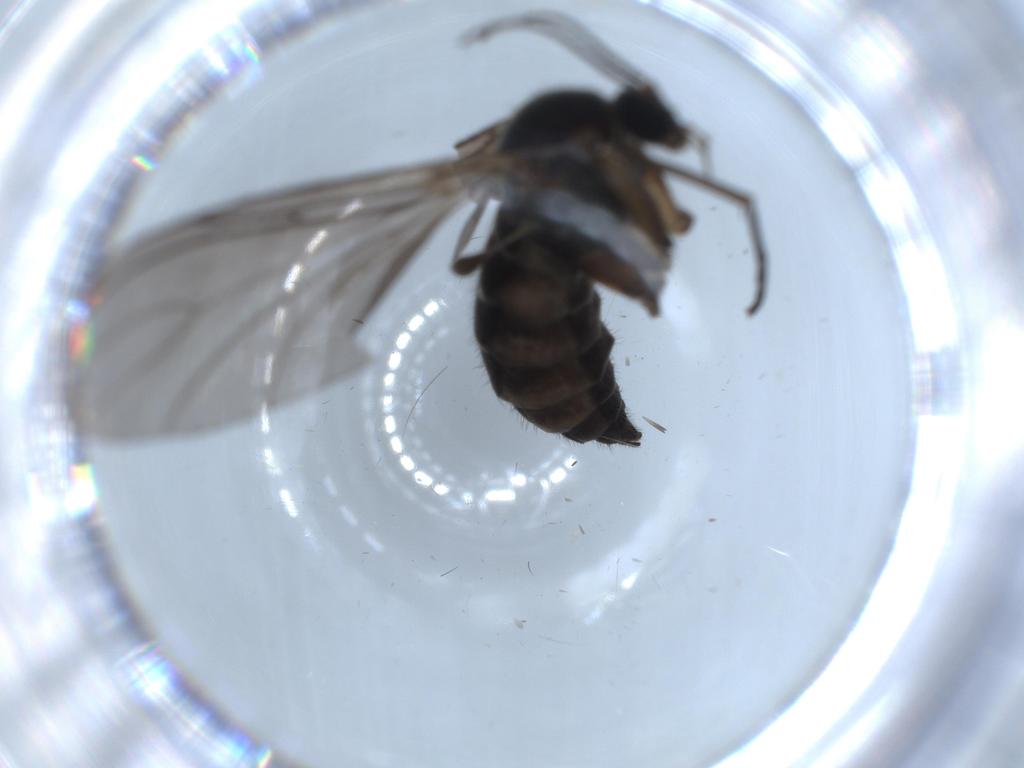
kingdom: Animalia
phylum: Arthropoda
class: Insecta
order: Diptera
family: Sciaridae
